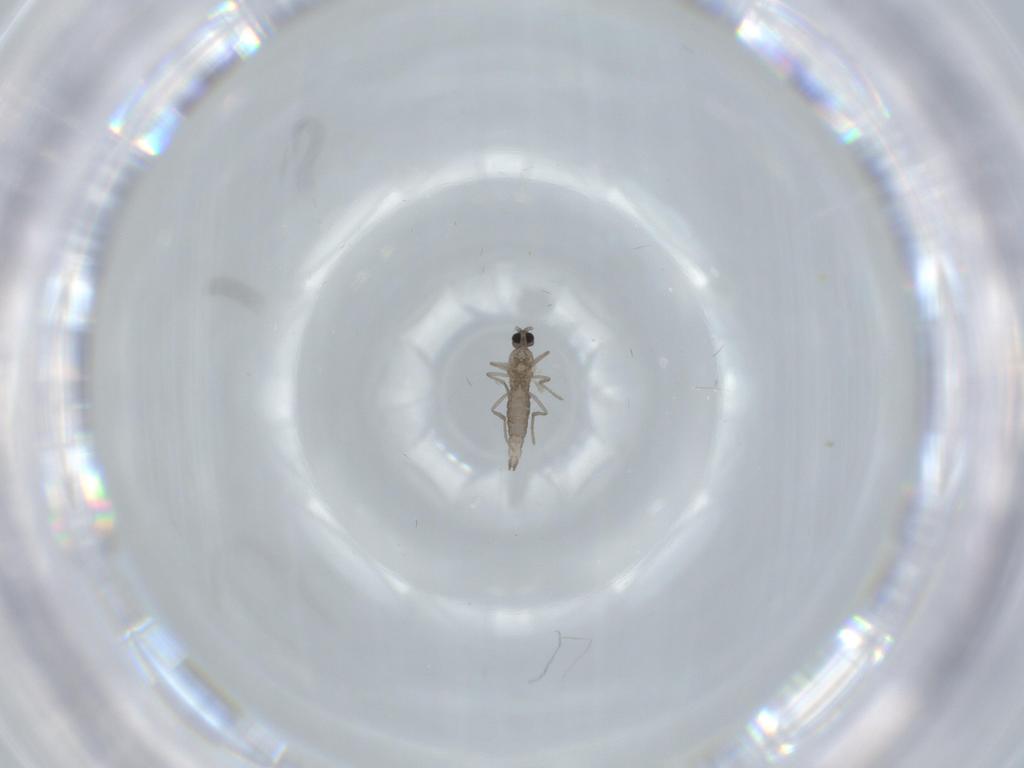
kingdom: Animalia
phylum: Arthropoda
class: Insecta
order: Diptera
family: Cecidomyiidae
